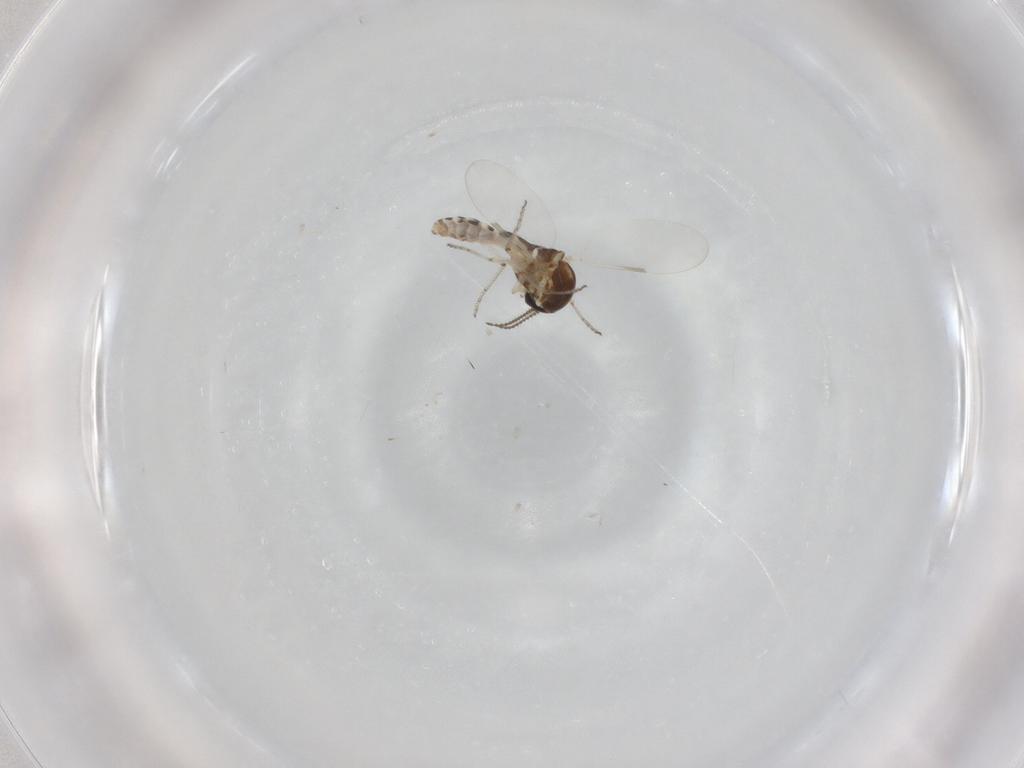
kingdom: Animalia
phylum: Arthropoda
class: Insecta
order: Diptera
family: Ceratopogonidae
